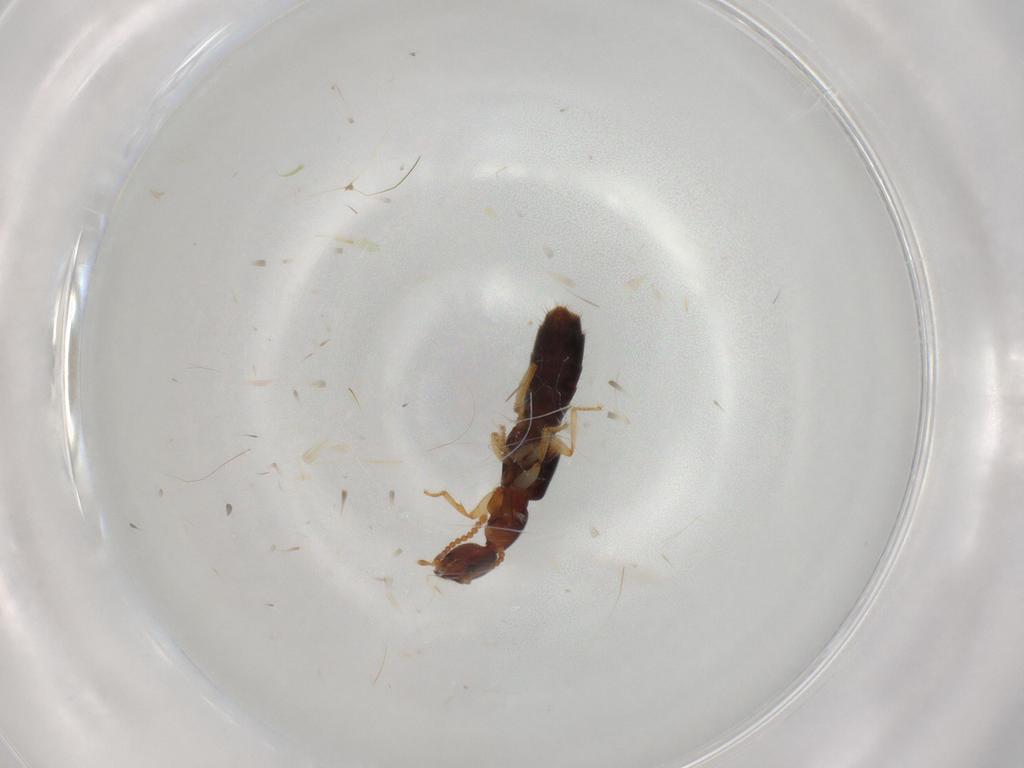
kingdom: Animalia
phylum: Arthropoda
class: Insecta
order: Coleoptera
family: Staphylinidae
